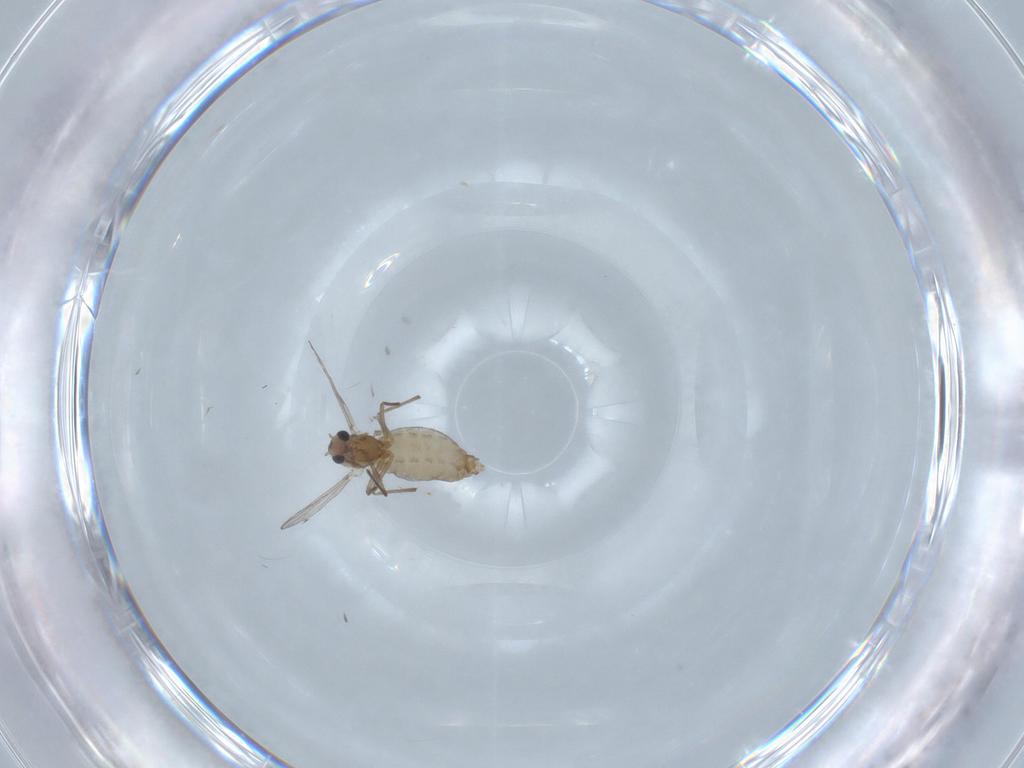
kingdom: Animalia
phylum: Arthropoda
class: Insecta
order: Diptera
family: Chironomidae
